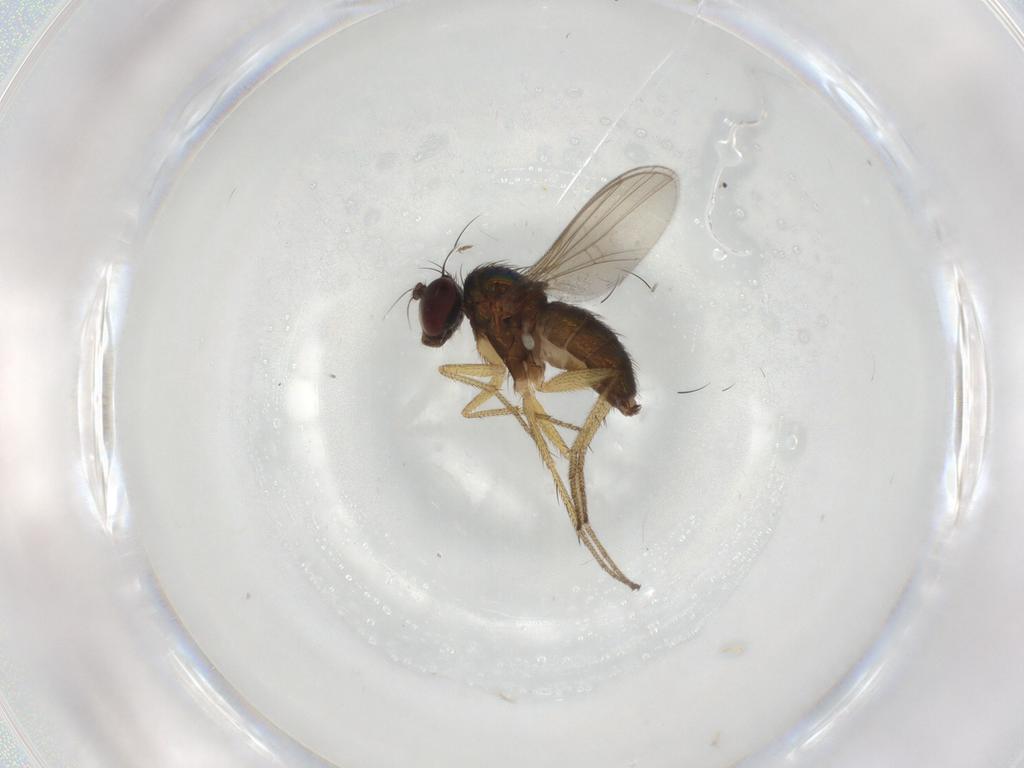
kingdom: Animalia
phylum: Arthropoda
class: Insecta
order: Diptera
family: Dolichopodidae
